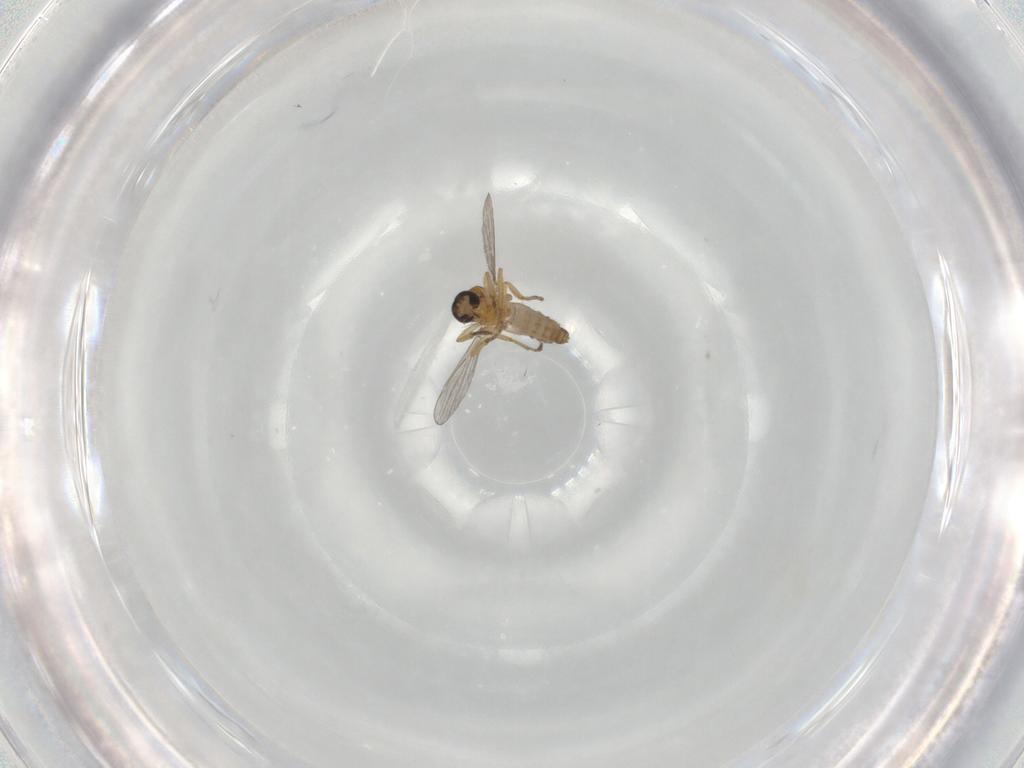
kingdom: Animalia
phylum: Arthropoda
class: Insecta
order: Diptera
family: Ceratopogonidae
